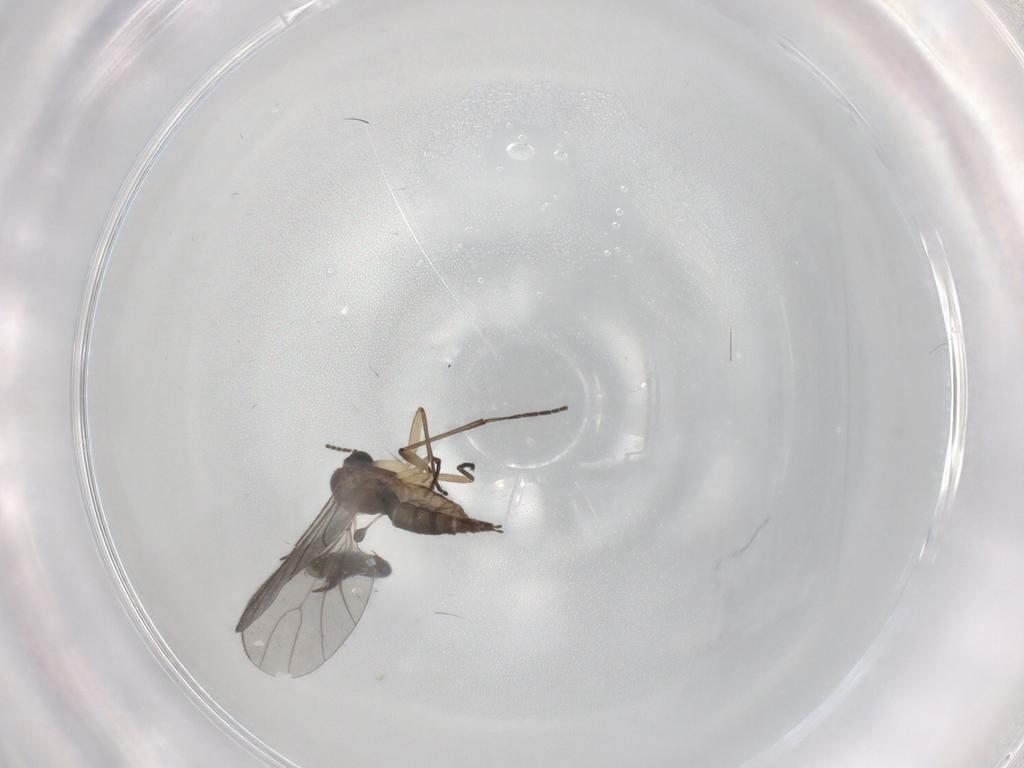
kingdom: Animalia
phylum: Arthropoda
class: Insecta
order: Diptera
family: Sciaridae
